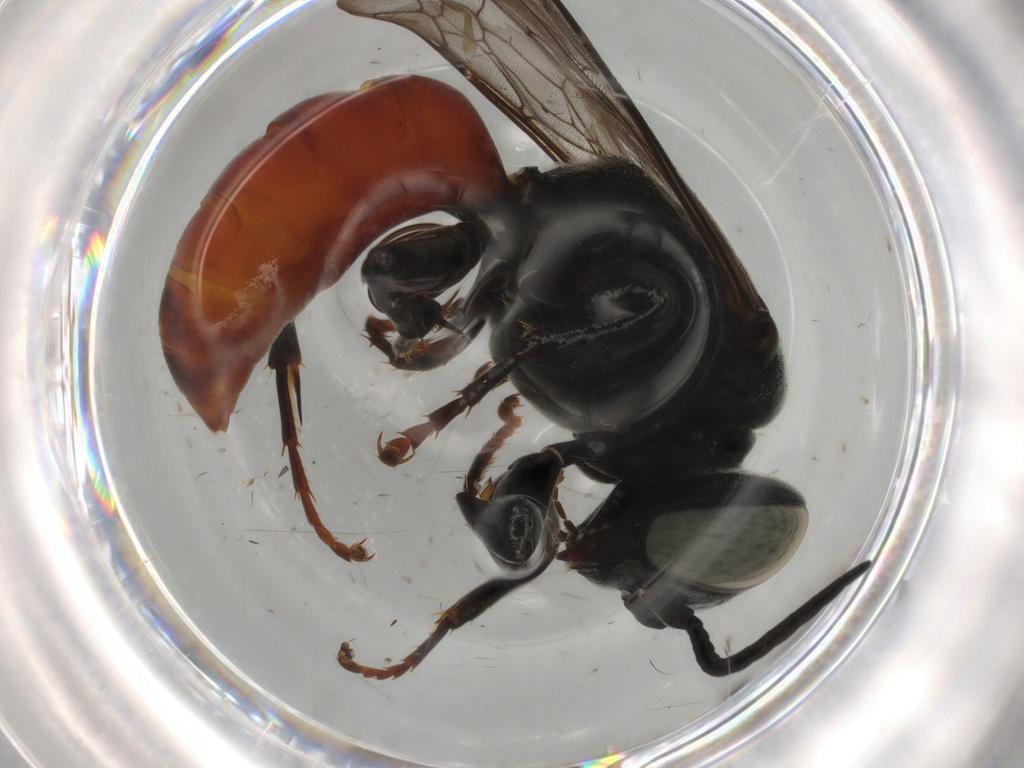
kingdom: Animalia
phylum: Arthropoda
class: Insecta
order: Hymenoptera
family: Crabronidae
